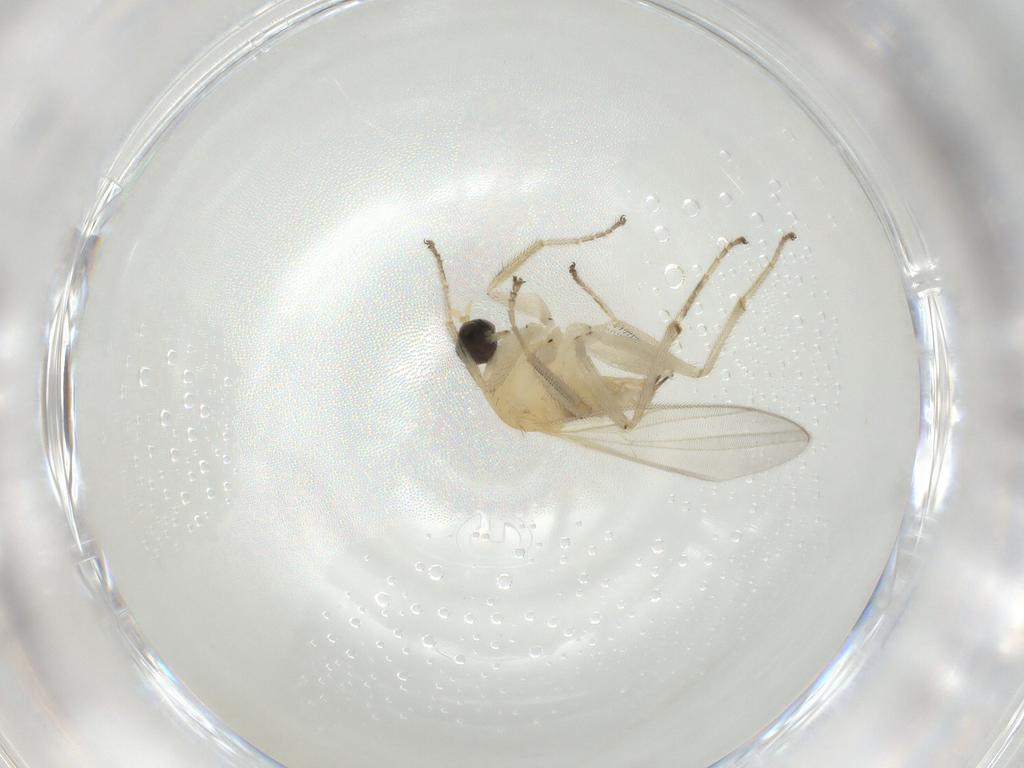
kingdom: Animalia
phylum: Arthropoda
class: Insecta
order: Diptera
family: Hybotidae
